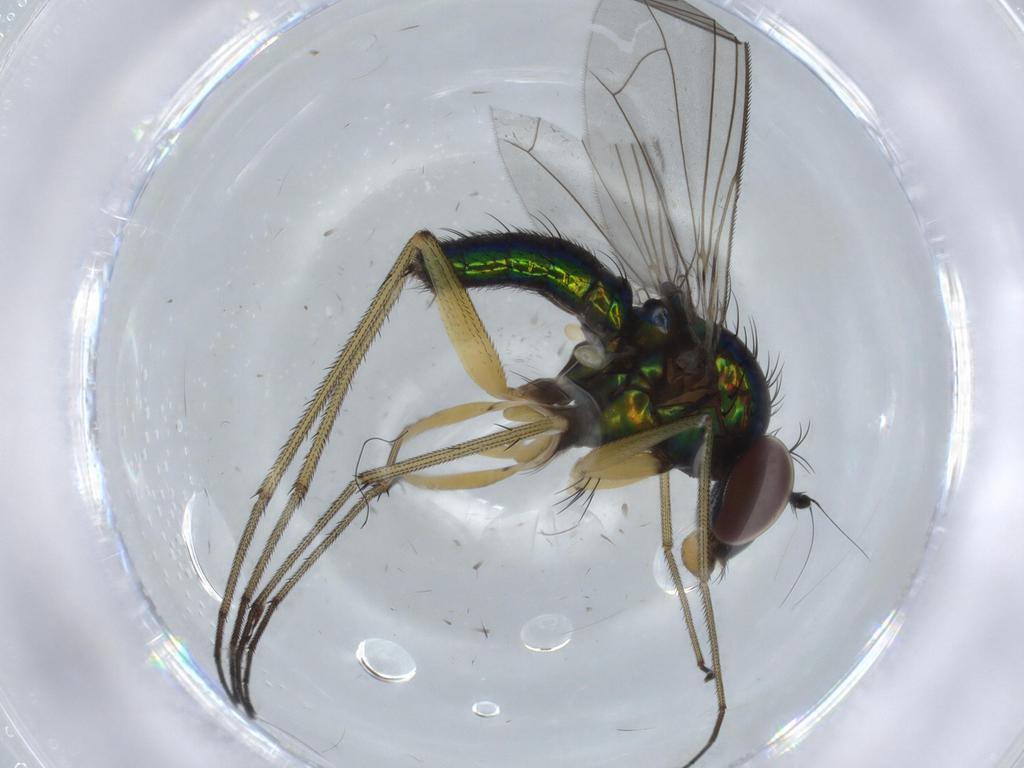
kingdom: Animalia
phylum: Arthropoda
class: Insecta
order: Diptera
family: Dolichopodidae
